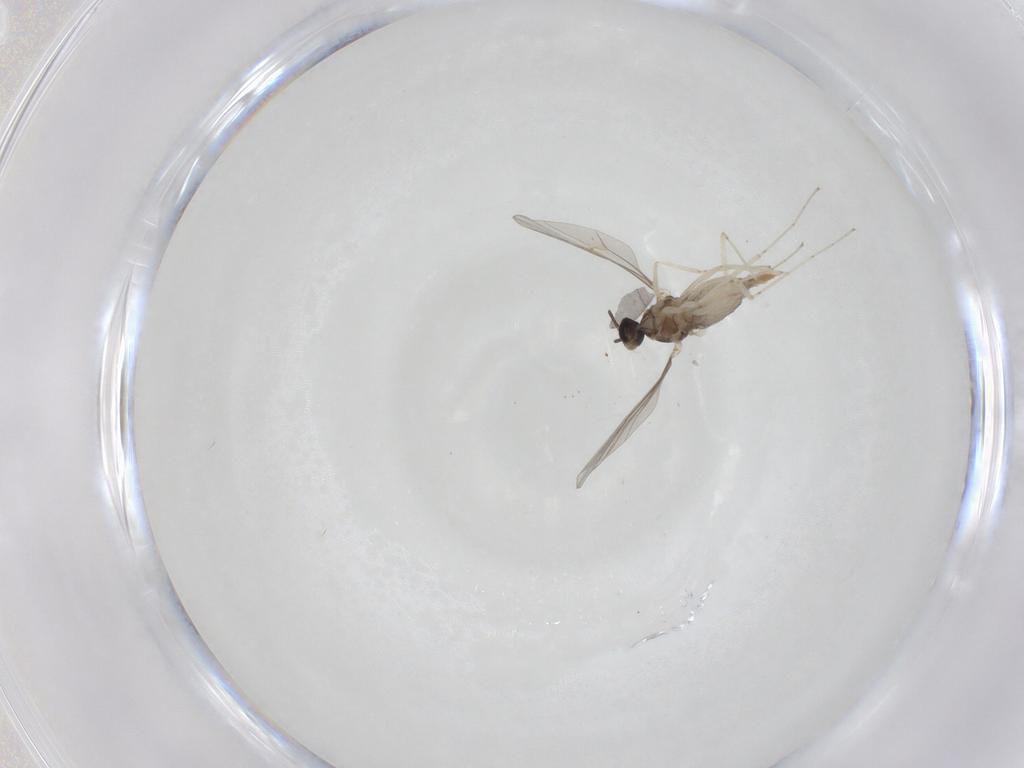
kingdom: Animalia
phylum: Arthropoda
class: Insecta
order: Diptera
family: Cecidomyiidae
